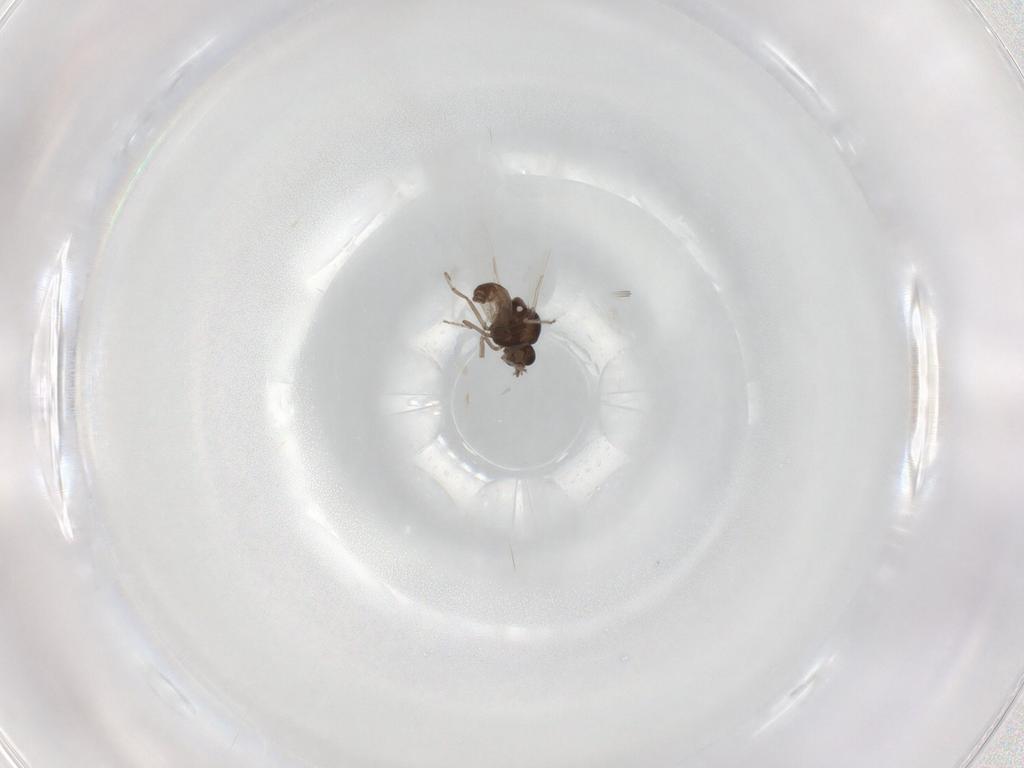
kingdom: Animalia
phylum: Arthropoda
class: Insecta
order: Diptera
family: Ceratopogonidae
